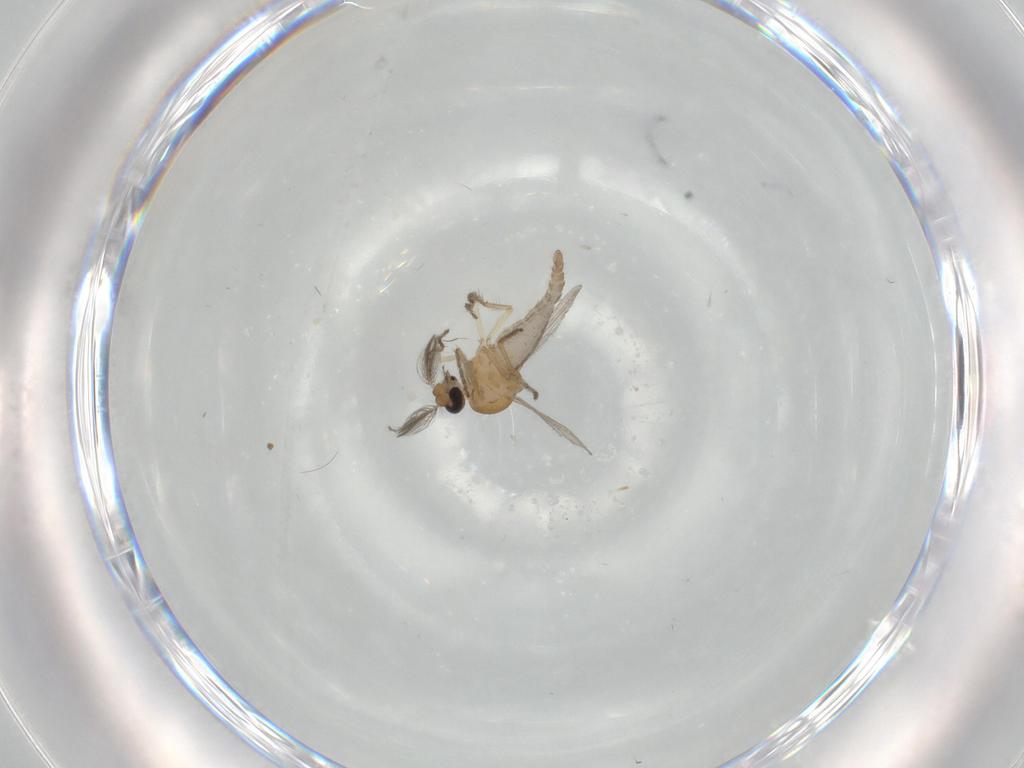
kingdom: Animalia
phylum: Arthropoda
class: Insecta
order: Diptera
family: Ceratopogonidae
